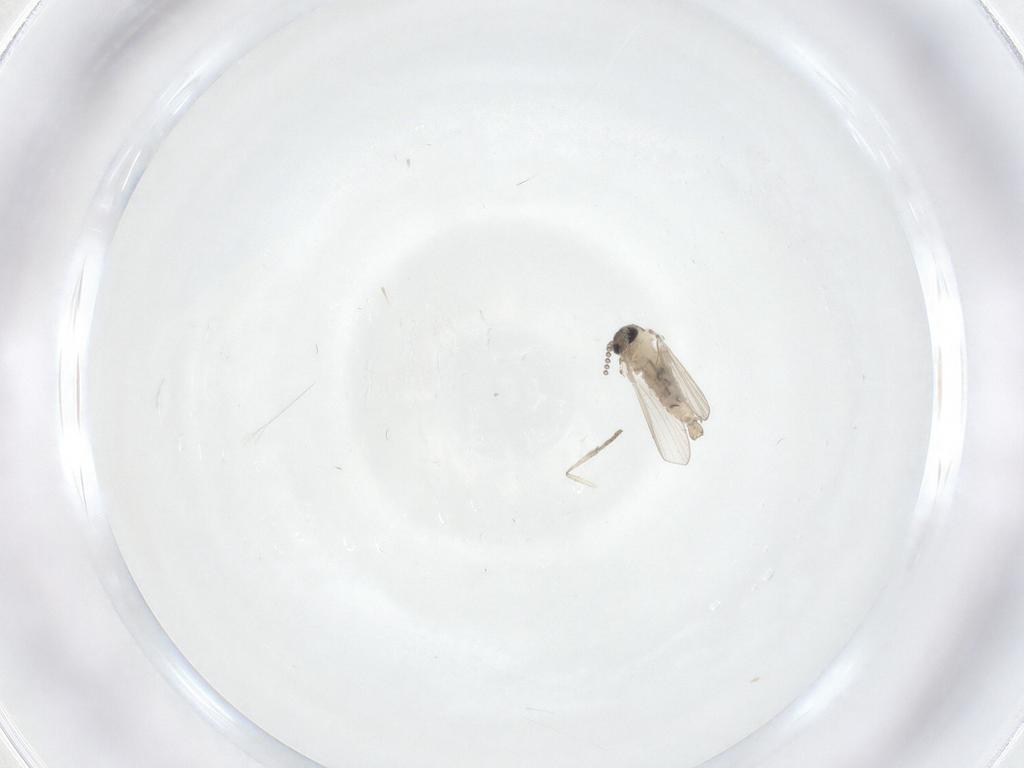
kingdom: Animalia
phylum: Arthropoda
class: Insecta
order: Diptera
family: Psychodidae
